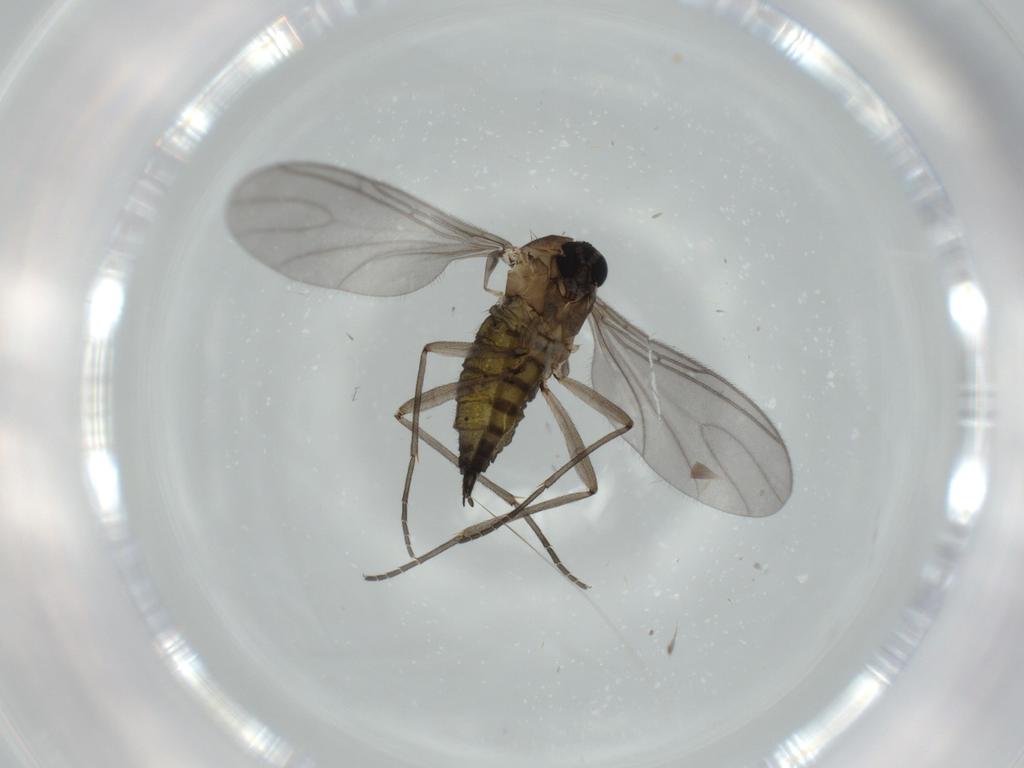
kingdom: Animalia
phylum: Arthropoda
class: Insecta
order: Diptera
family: Sciaridae
